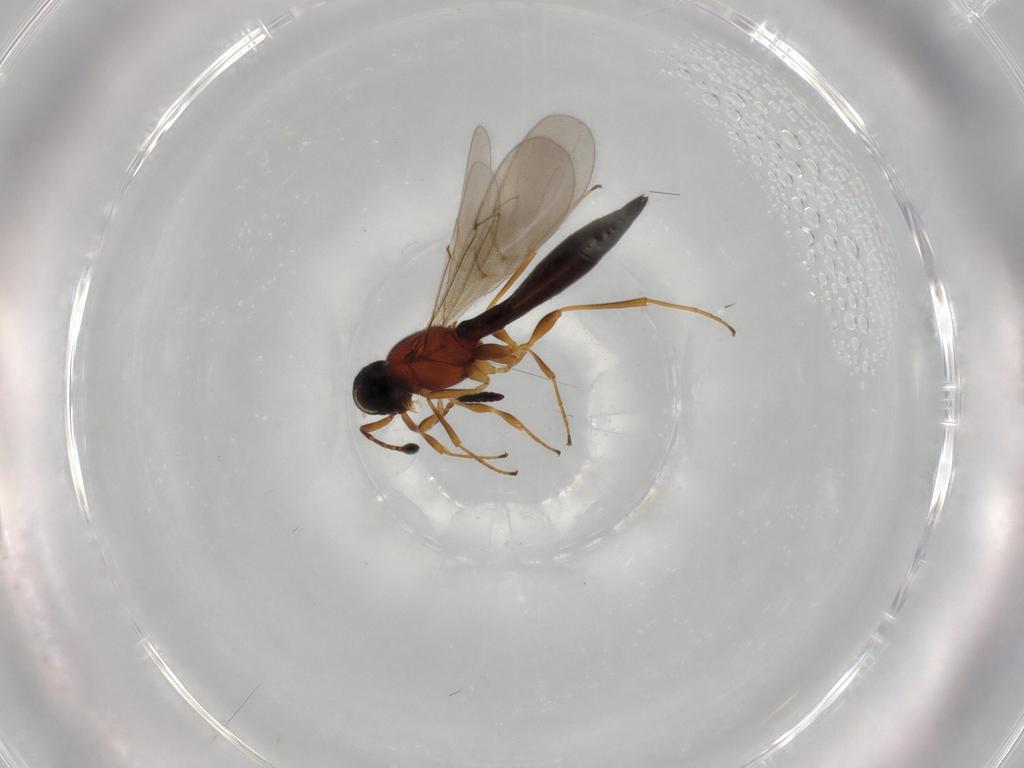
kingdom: Animalia
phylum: Arthropoda
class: Insecta
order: Hymenoptera
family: Scelionidae
